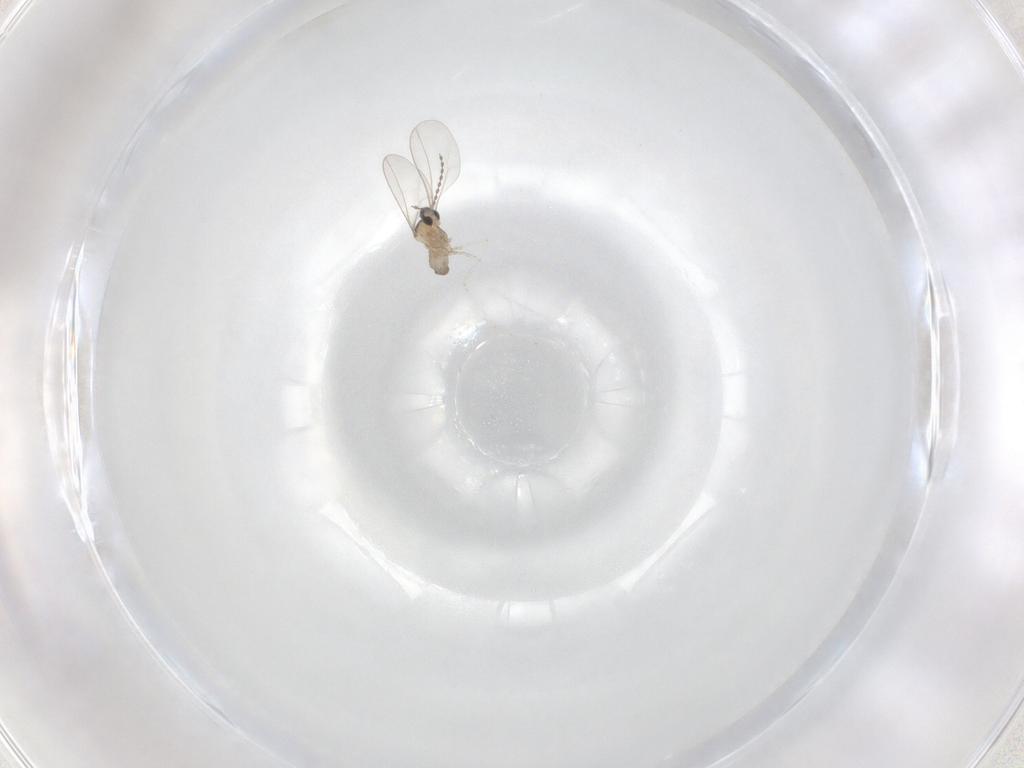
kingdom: Animalia
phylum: Arthropoda
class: Insecta
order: Diptera
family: Cecidomyiidae
